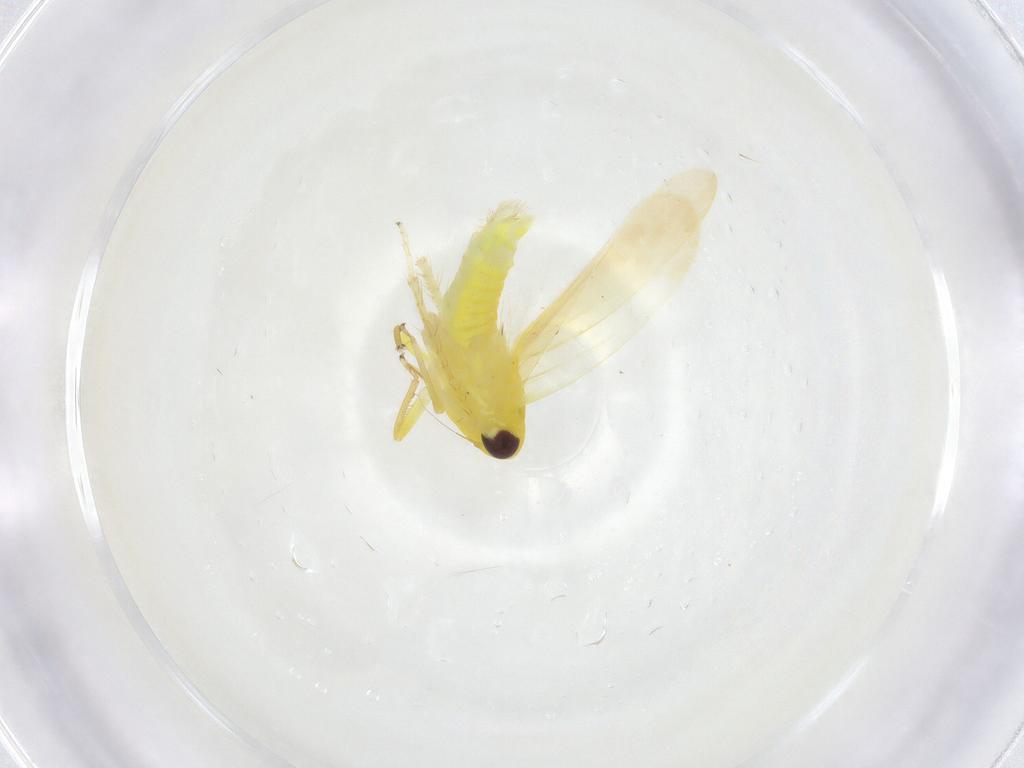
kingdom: Animalia
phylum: Arthropoda
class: Insecta
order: Hemiptera
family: Cicadellidae
